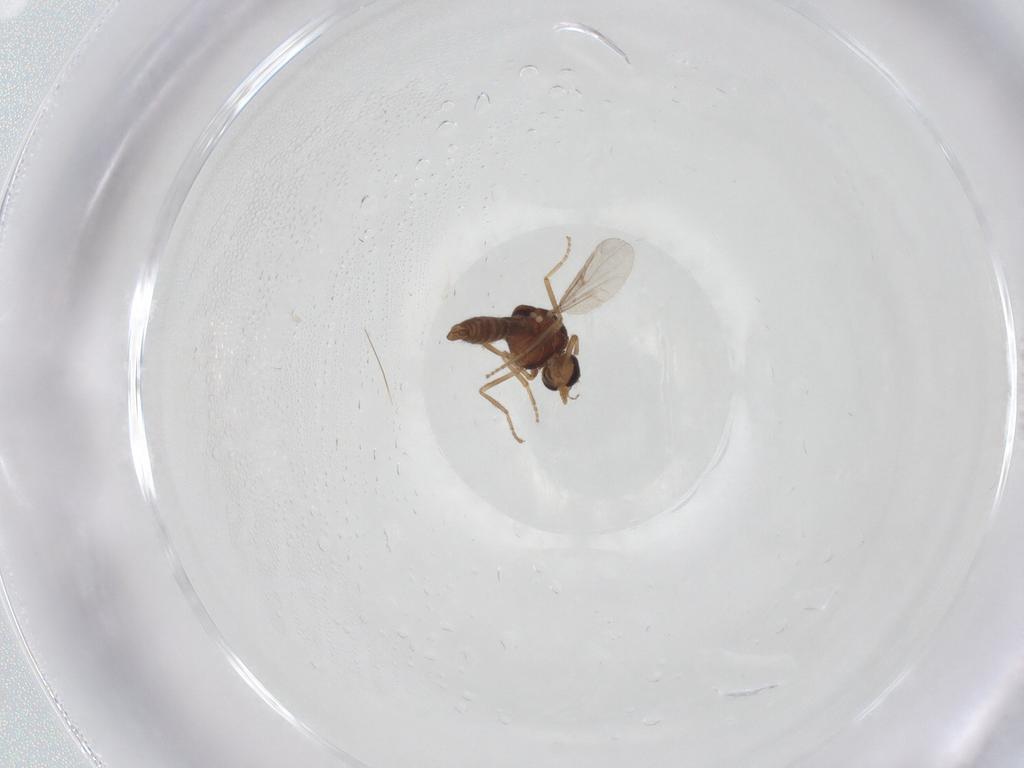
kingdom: Animalia
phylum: Arthropoda
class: Insecta
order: Diptera
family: Ceratopogonidae
